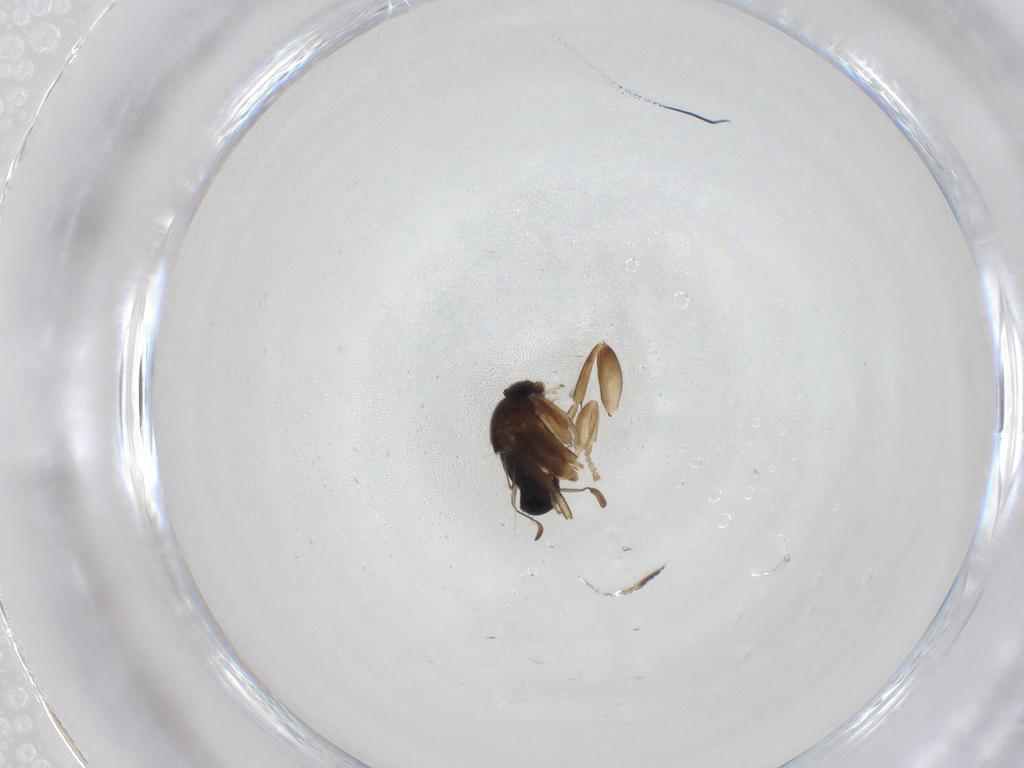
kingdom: Animalia
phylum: Arthropoda
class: Insecta
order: Diptera
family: Phoridae
